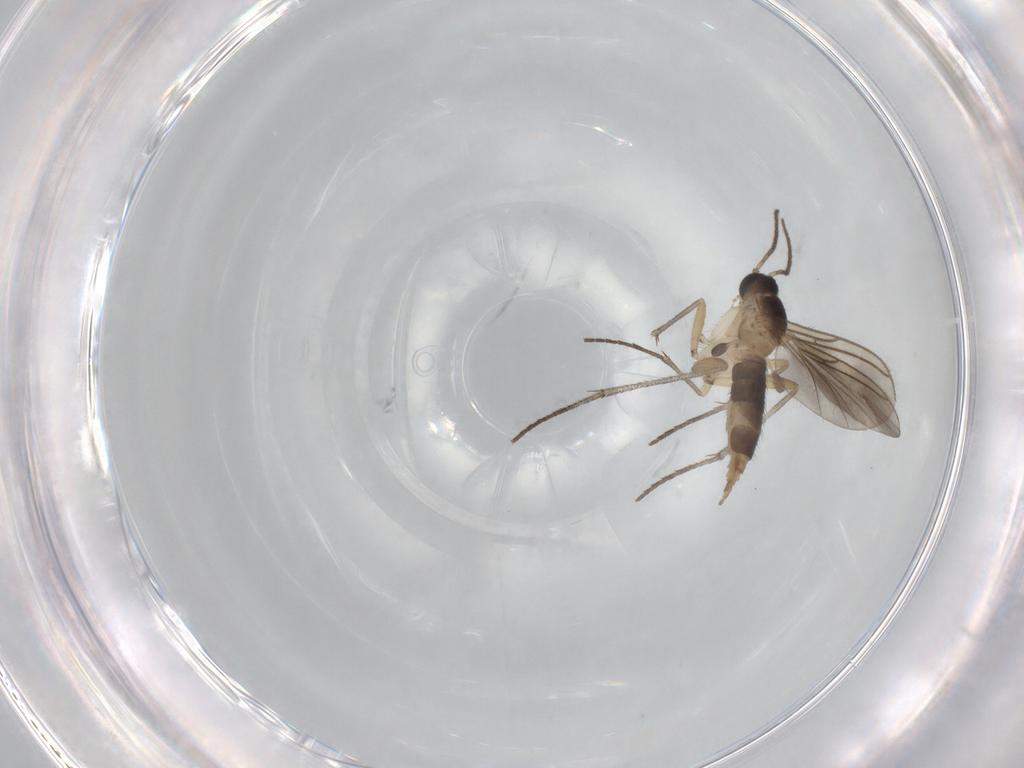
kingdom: Animalia
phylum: Arthropoda
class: Insecta
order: Diptera
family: Sciaridae
